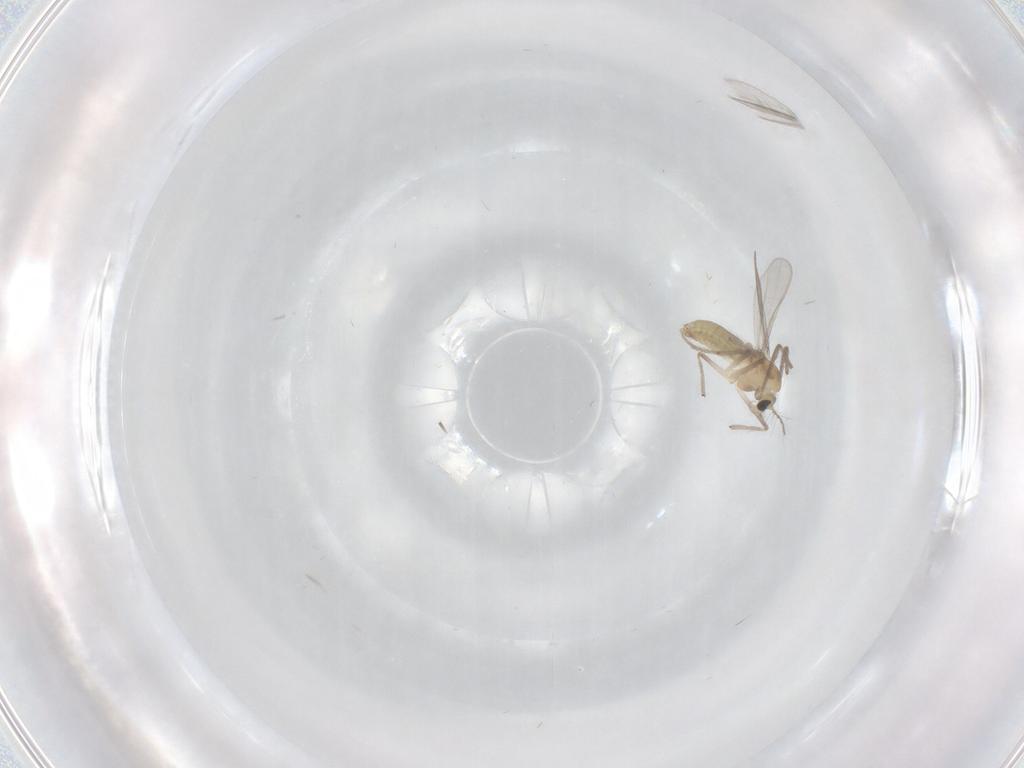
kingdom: Animalia
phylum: Arthropoda
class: Insecta
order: Diptera
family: Chironomidae
